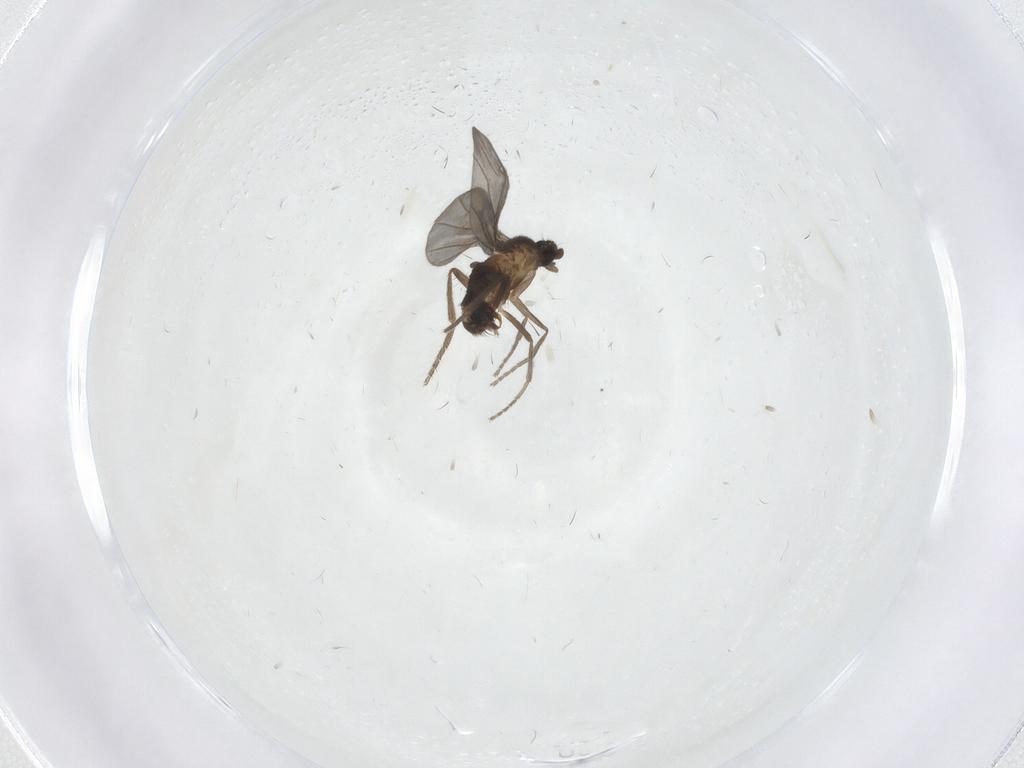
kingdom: Animalia
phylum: Arthropoda
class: Insecta
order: Diptera
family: Phoridae
